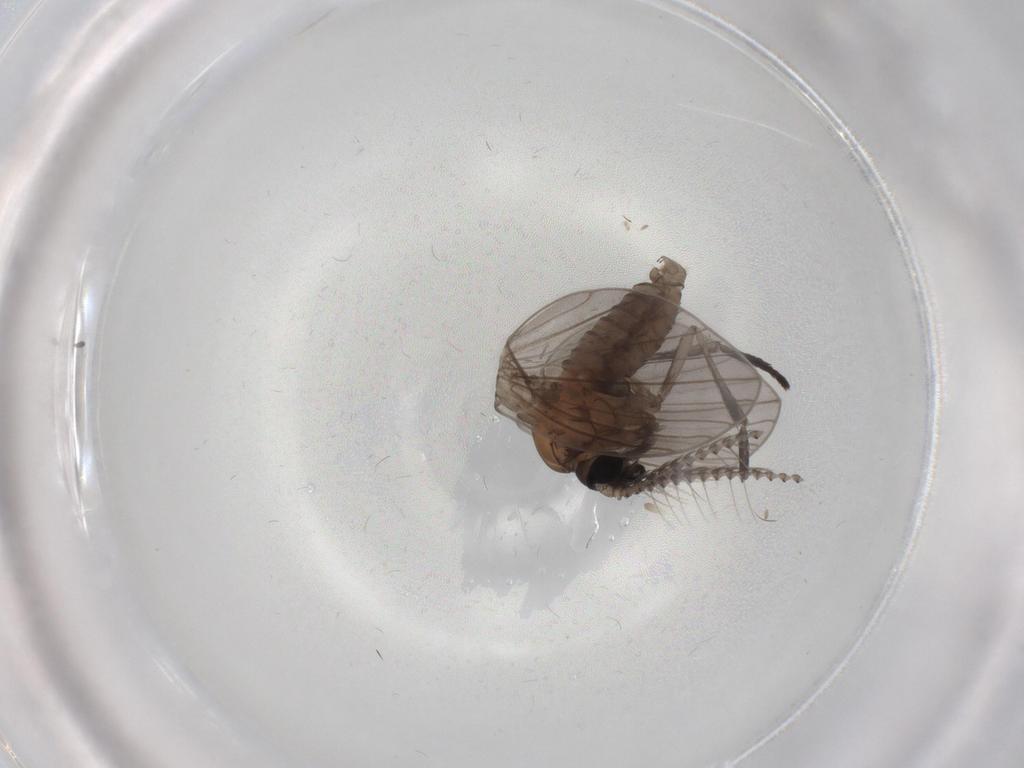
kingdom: Animalia
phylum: Arthropoda
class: Insecta
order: Diptera
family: Sciaridae
